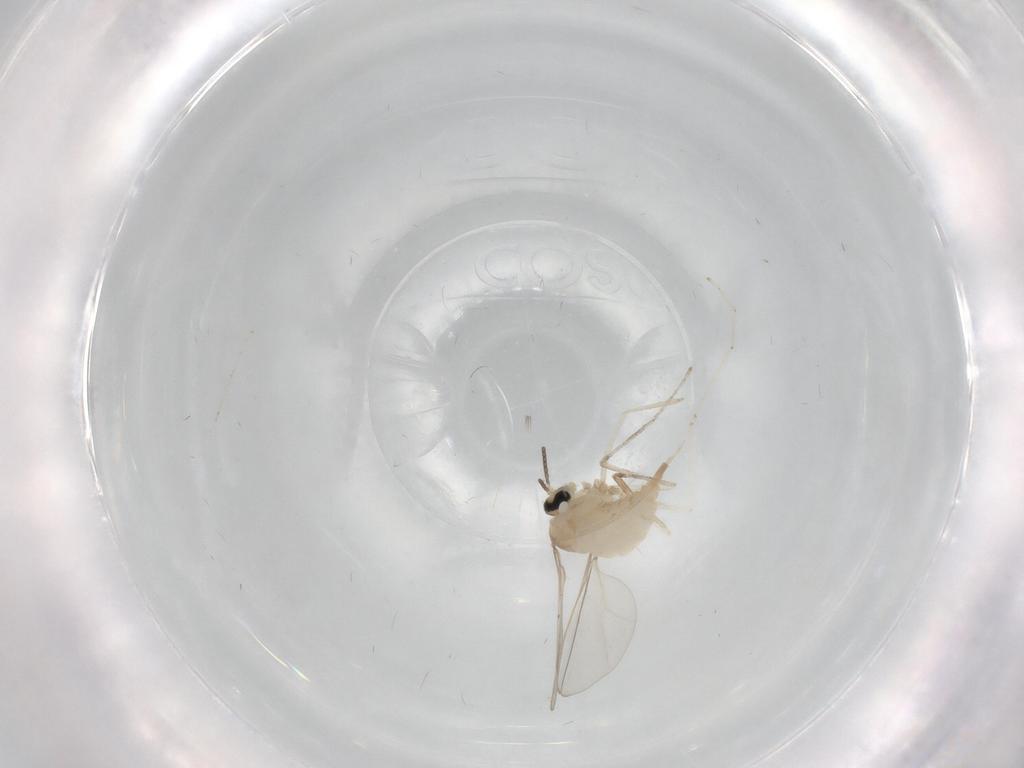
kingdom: Animalia
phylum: Arthropoda
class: Insecta
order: Diptera
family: Cecidomyiidae
